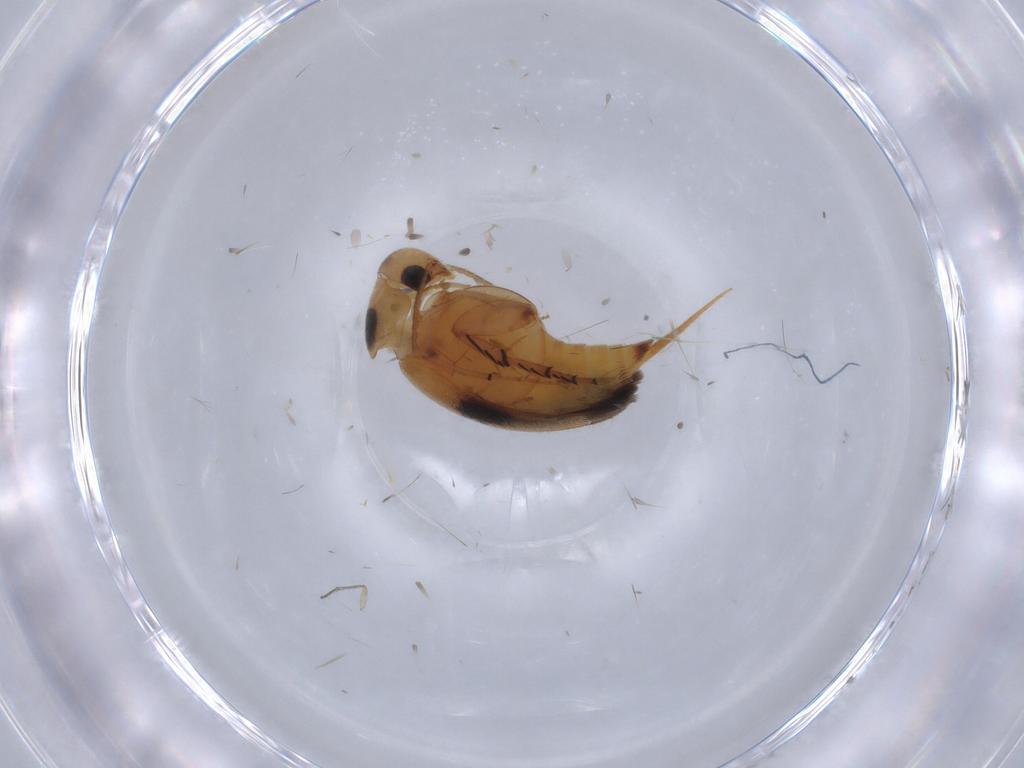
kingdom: Animalia
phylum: Arthropoda
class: Insecta
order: Coleoptera
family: Mordellidae
